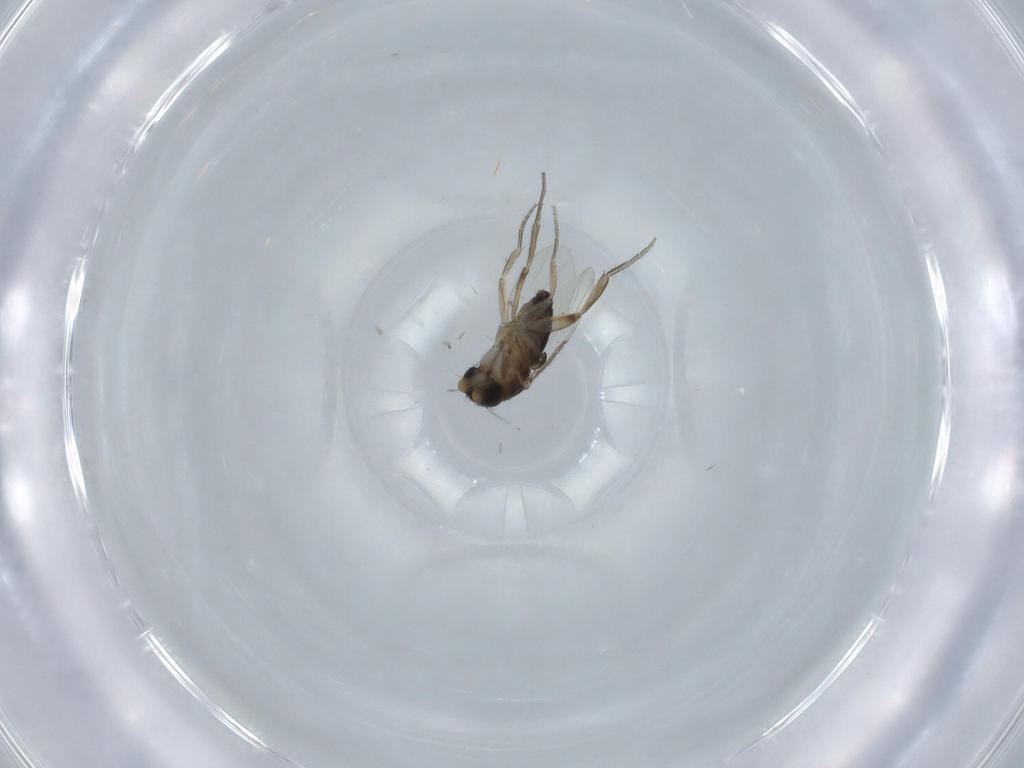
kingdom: Animalia
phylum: Arthropoda
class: Insecta
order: Diptera
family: Phoridae
